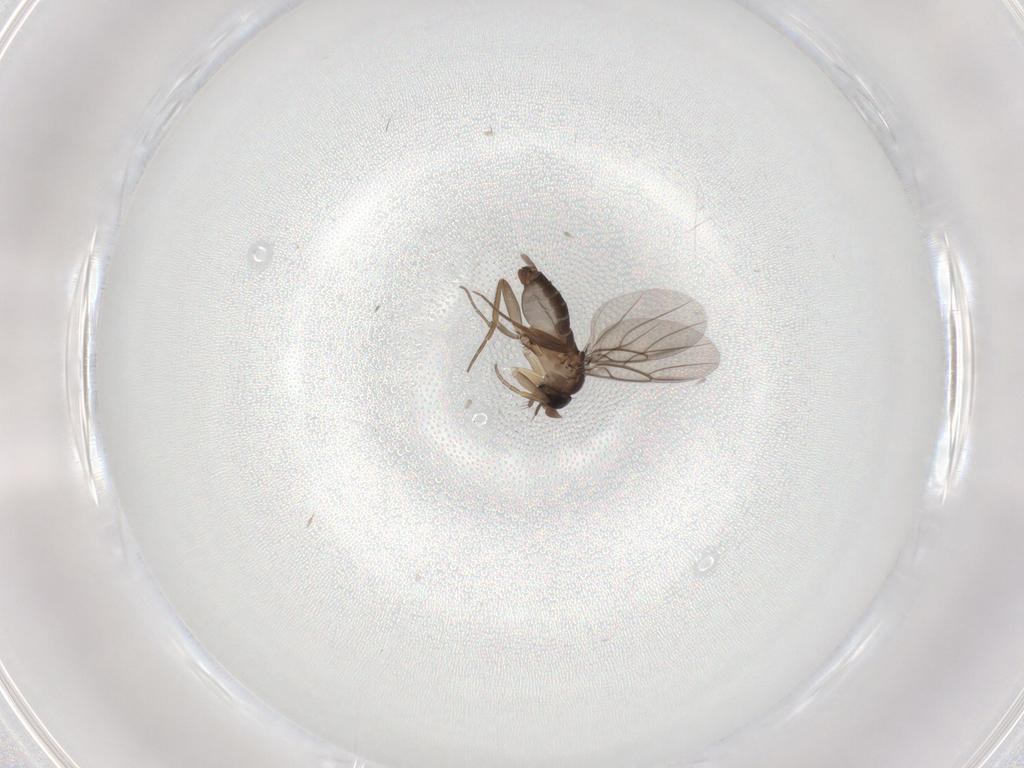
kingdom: Animalia
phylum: Arthropoda
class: Insecta
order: Diptera
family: Phoridae
